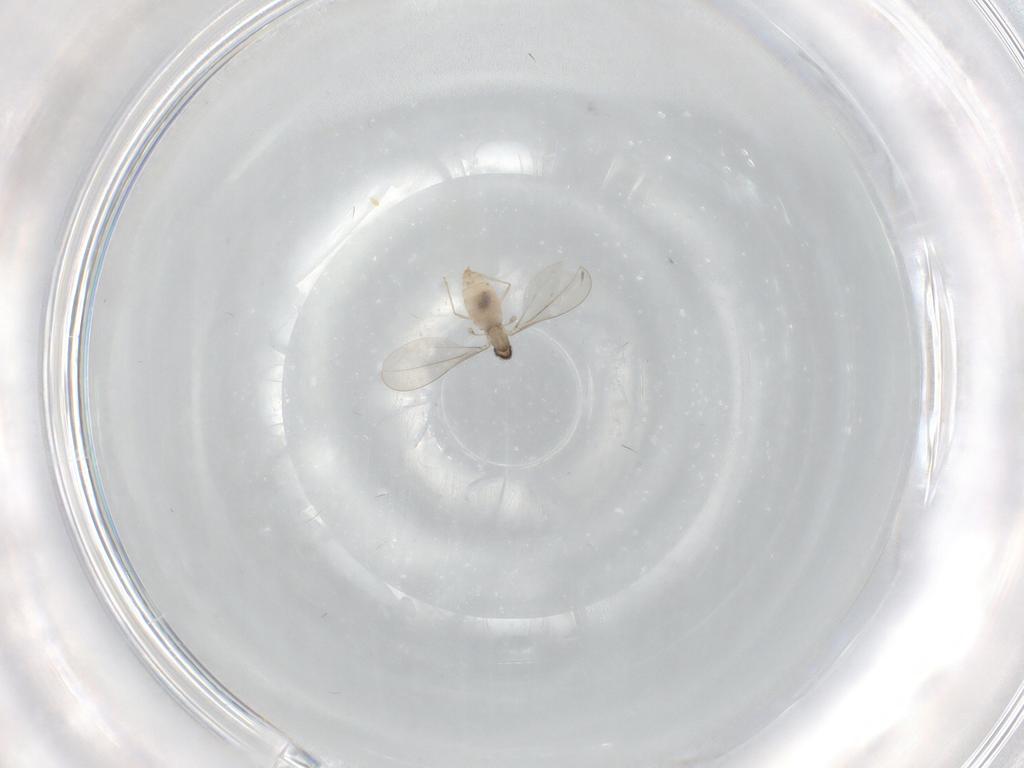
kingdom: Animalia
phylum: Arthropoda
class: Insecta
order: Diptera
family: Cecidomyiidae
